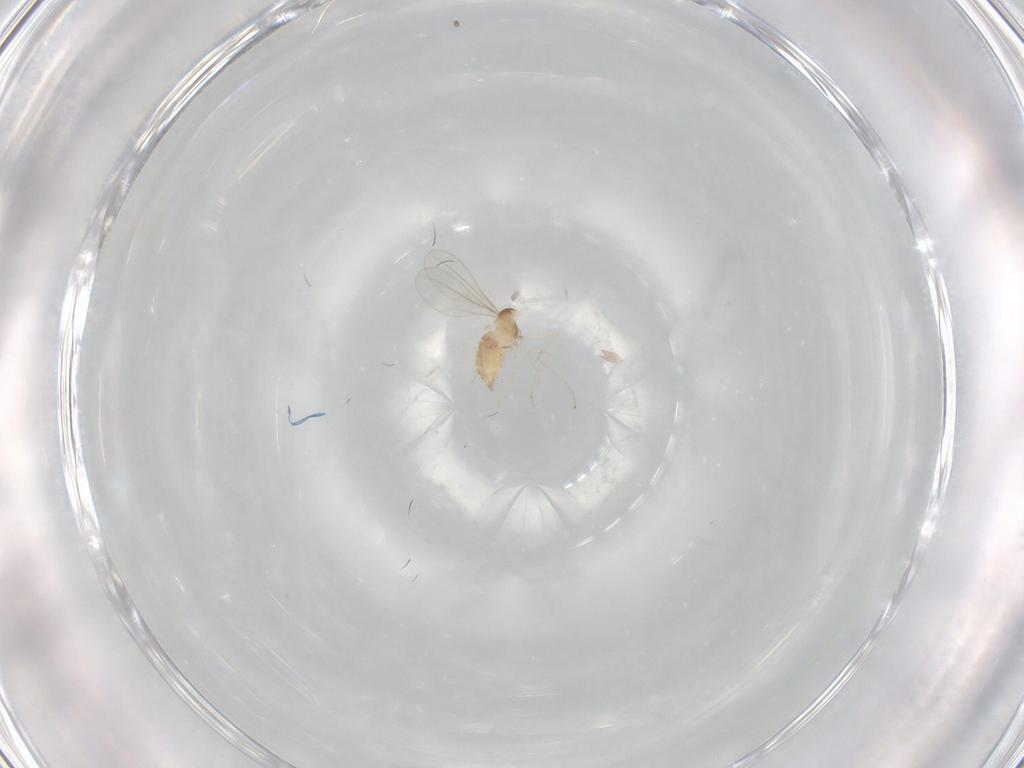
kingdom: Animalia
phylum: Arthropoda
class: Insecta
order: Diptera
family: Cecidomyiidae
